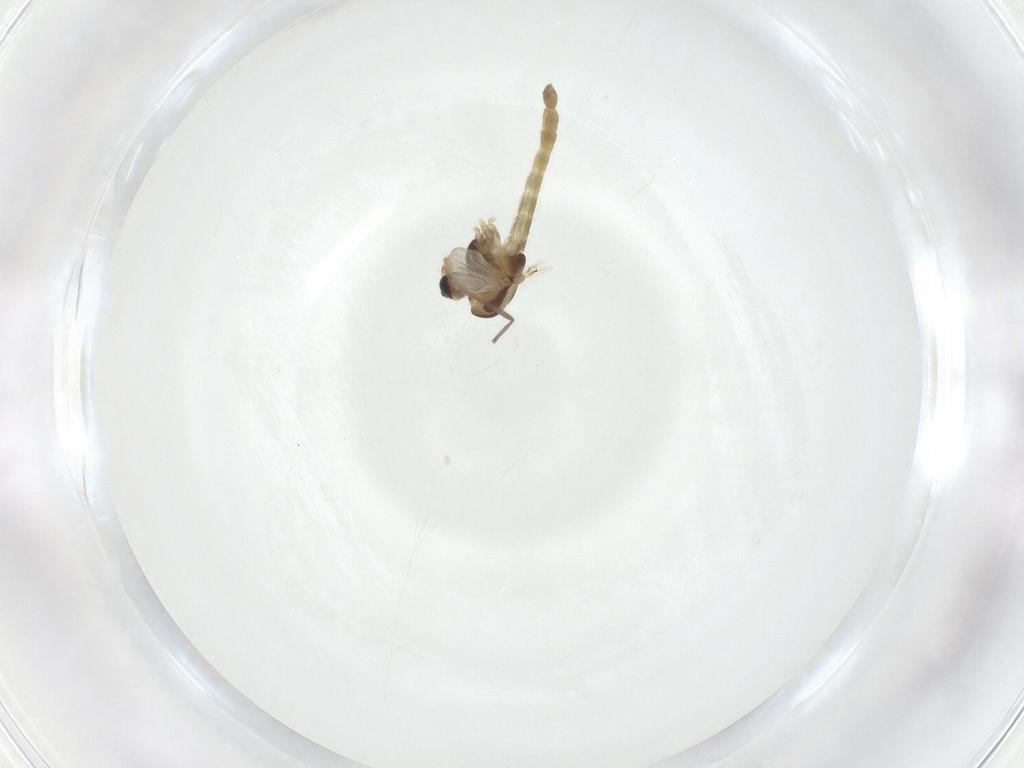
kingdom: Animalia
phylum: Arthropoda
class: Insecta
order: Diptera
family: Chironomidae
